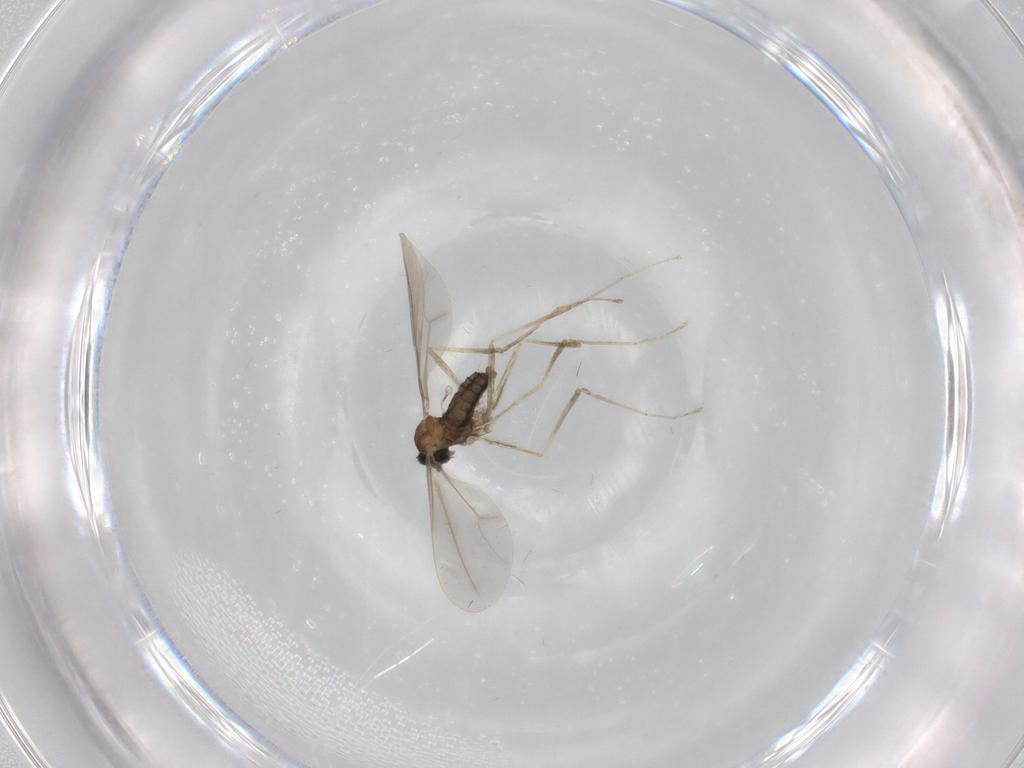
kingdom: Animalia
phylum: Arthropoda
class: Insecta
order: Diptera
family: Cecidomyiidae
